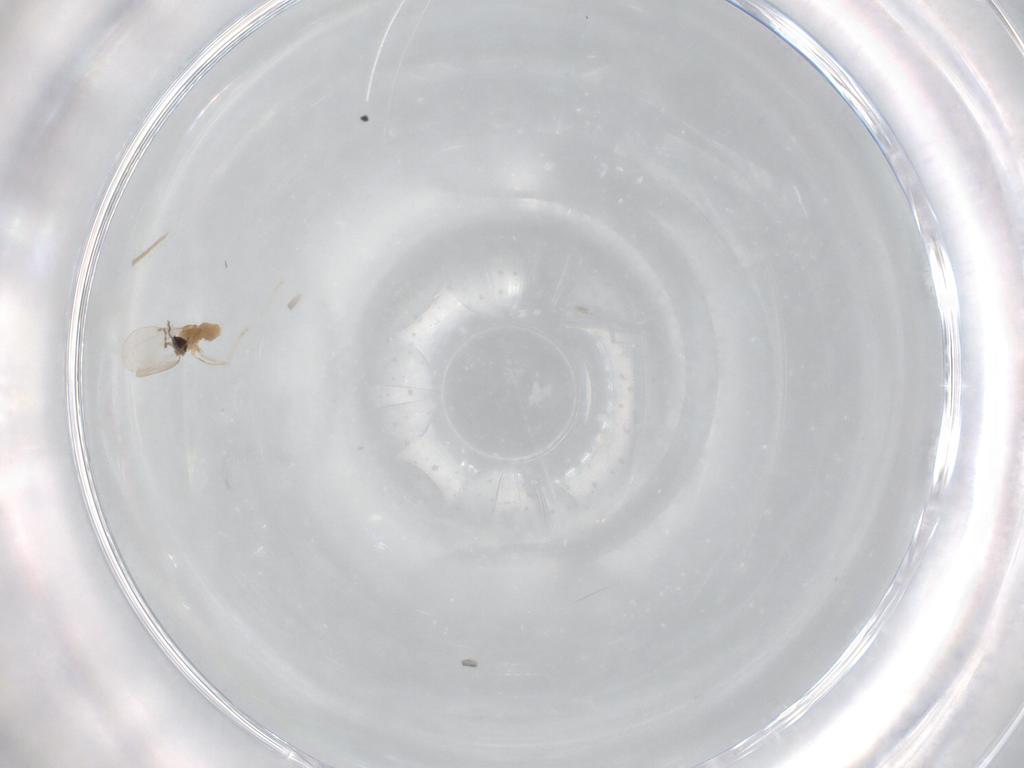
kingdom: Animalia
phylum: Arthropoda
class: Insecta
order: Diptera
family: Cecidomyiidae
